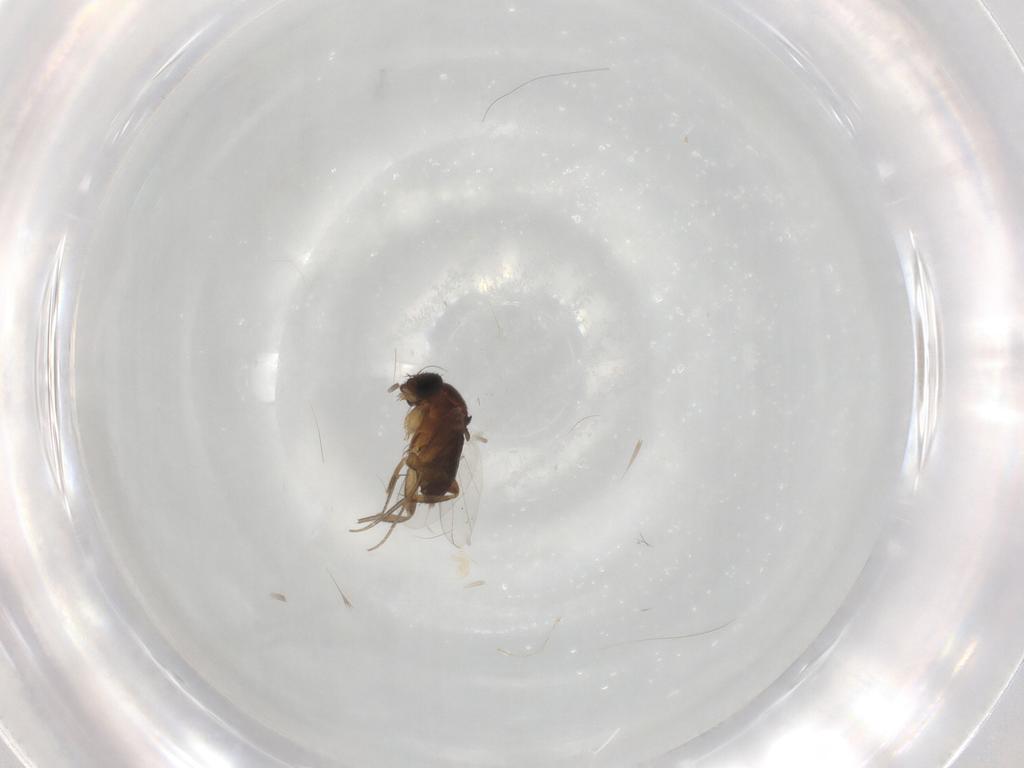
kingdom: Animalia
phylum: Arthropoda
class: Insecta
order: Diptera
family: Phoridae
